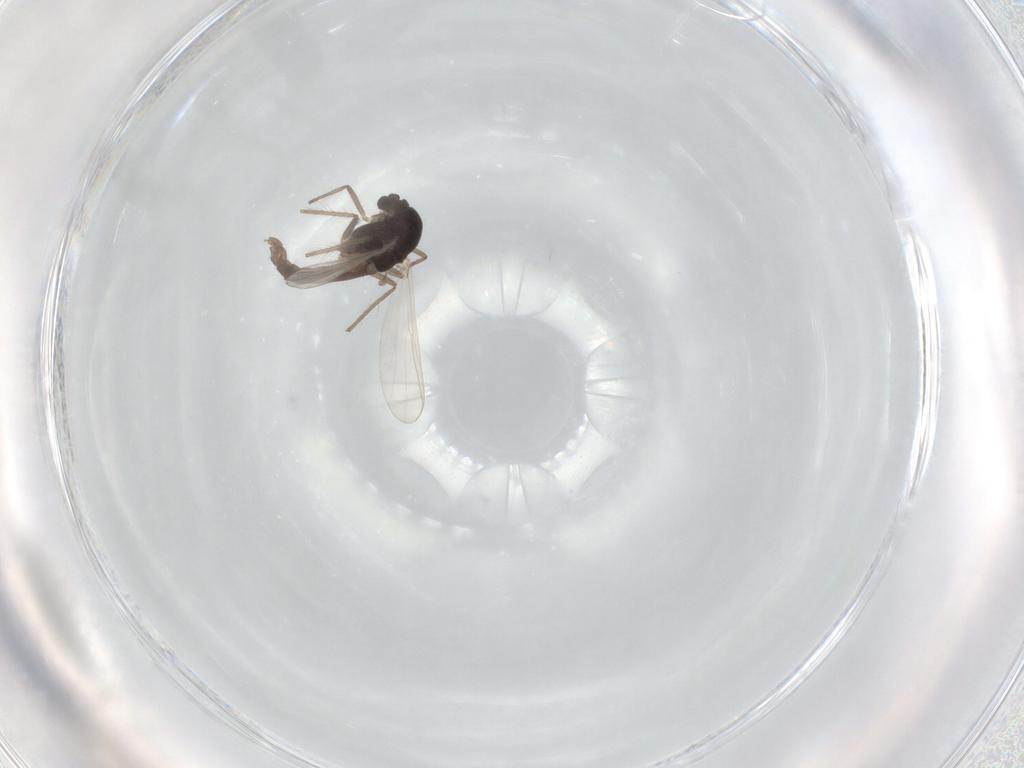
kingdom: Animalia
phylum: Arthropoda
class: Insecta
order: Diptera
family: Chironomidae
